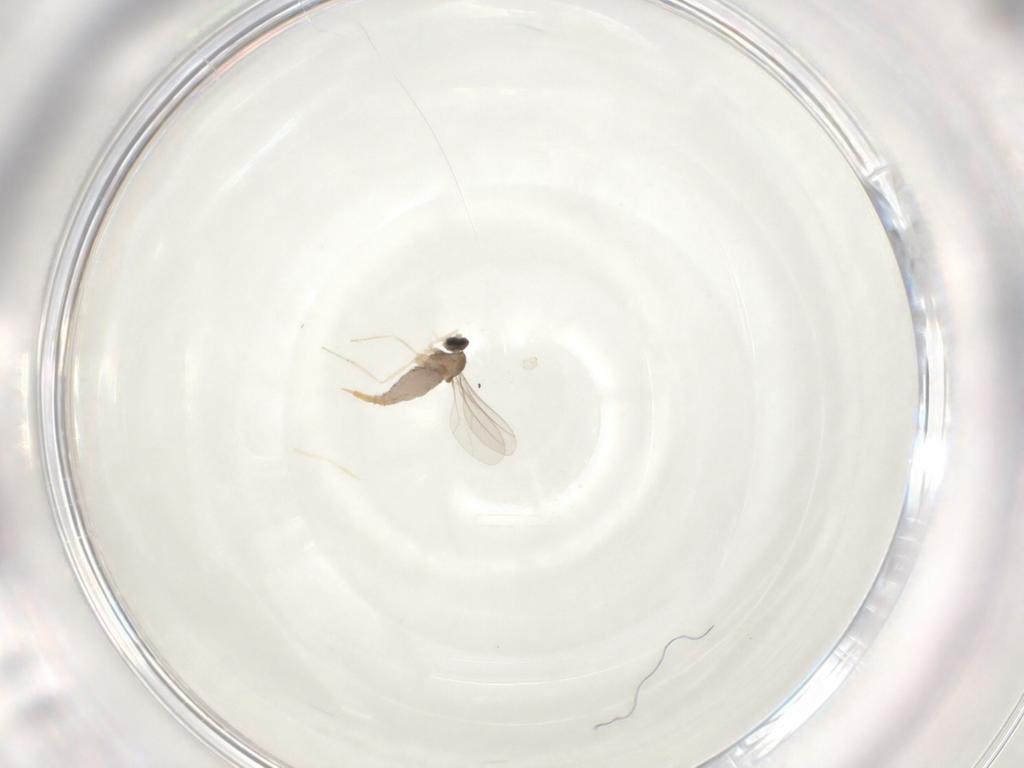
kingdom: Animalia
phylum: Arthropoda
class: Insecta
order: Diptera
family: Cecidomyiidae
